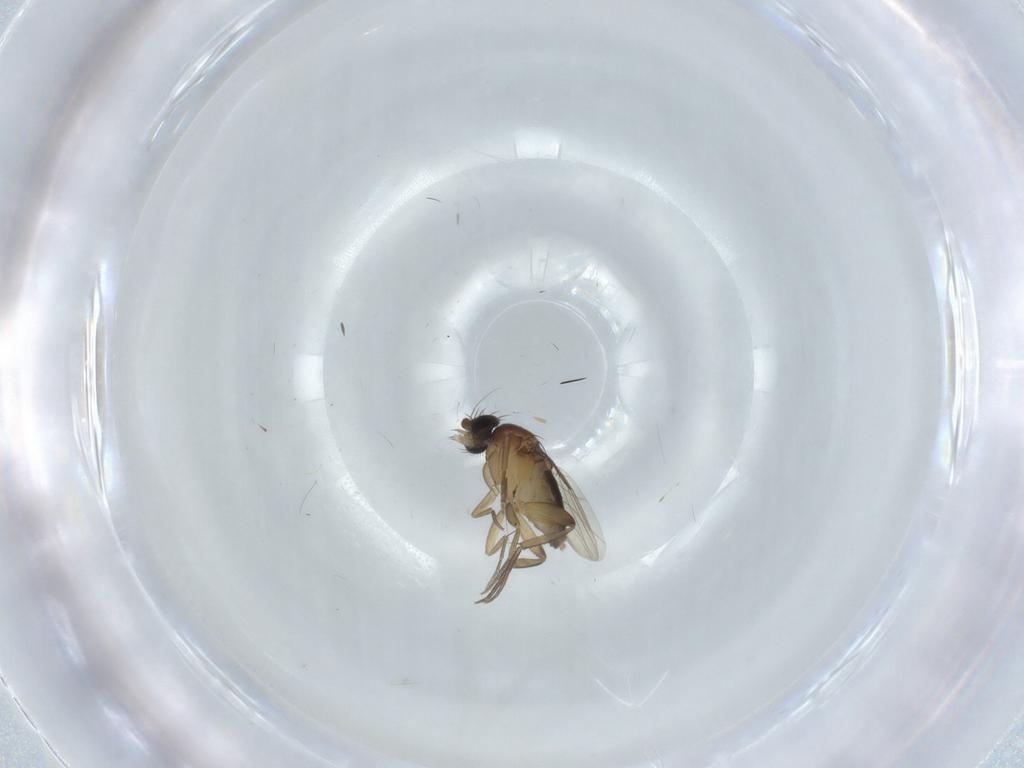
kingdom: Animalia
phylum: Arthropoda
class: Insecta
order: Diptera
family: Phoridae
